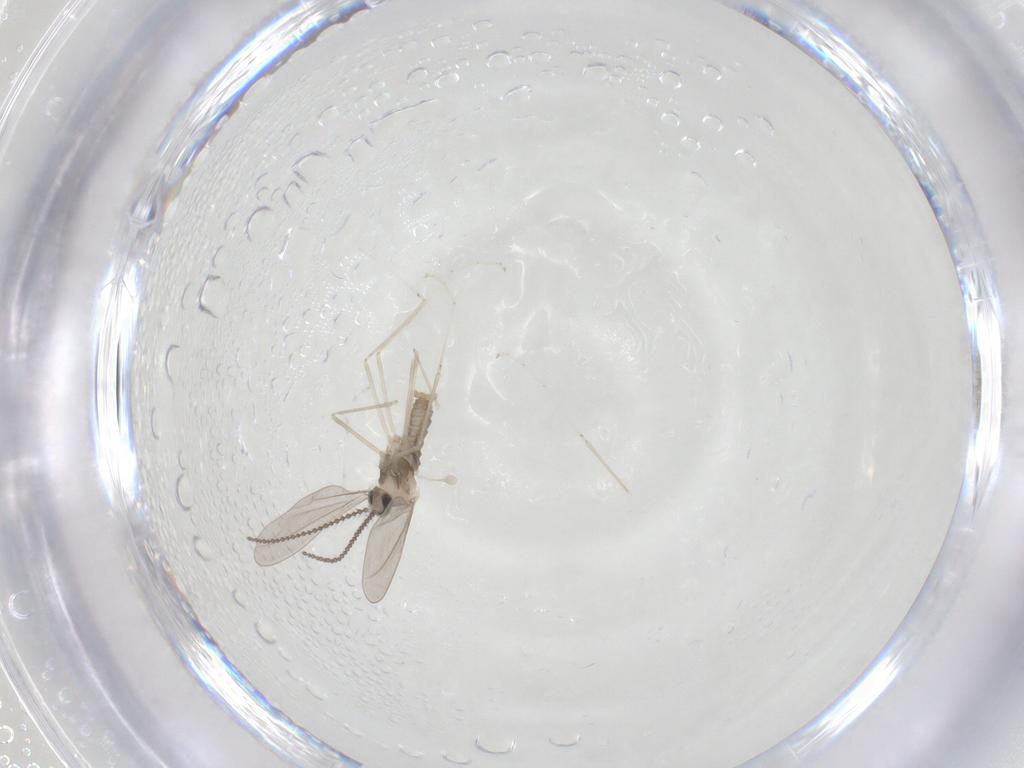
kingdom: Animalia
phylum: Arthropoda
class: Insecta
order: Diptera
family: Cecidomyiidae
